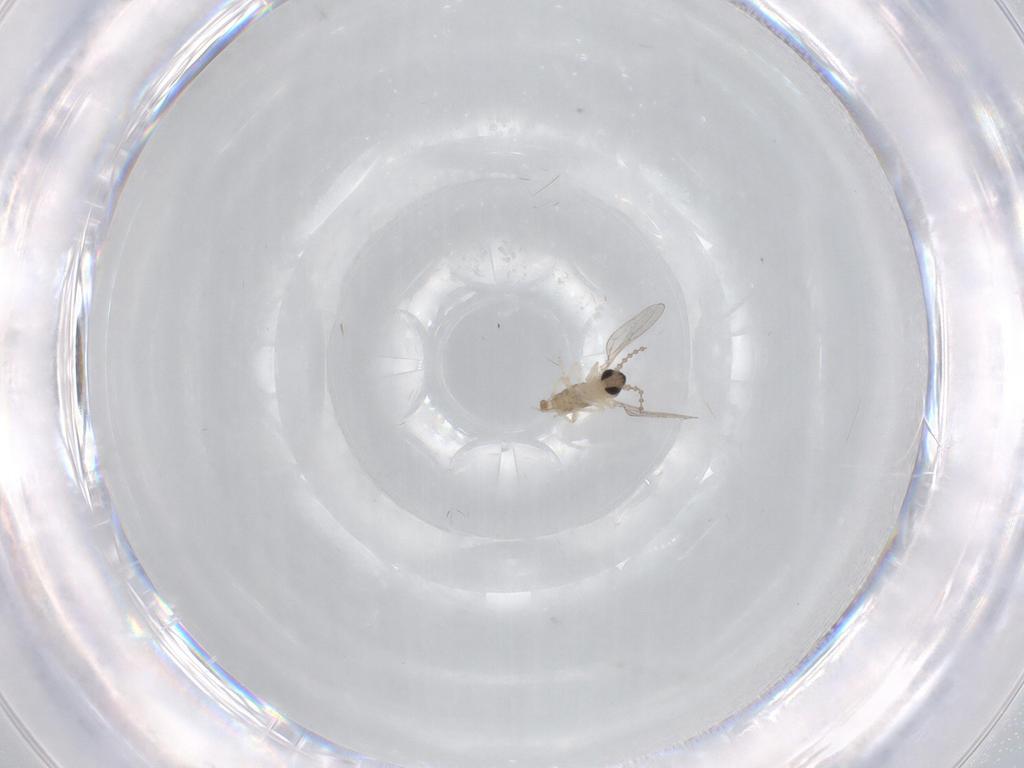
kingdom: Animalia
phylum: Arthropoda
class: Insecta
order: Diptera
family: Cecidomyiidae
